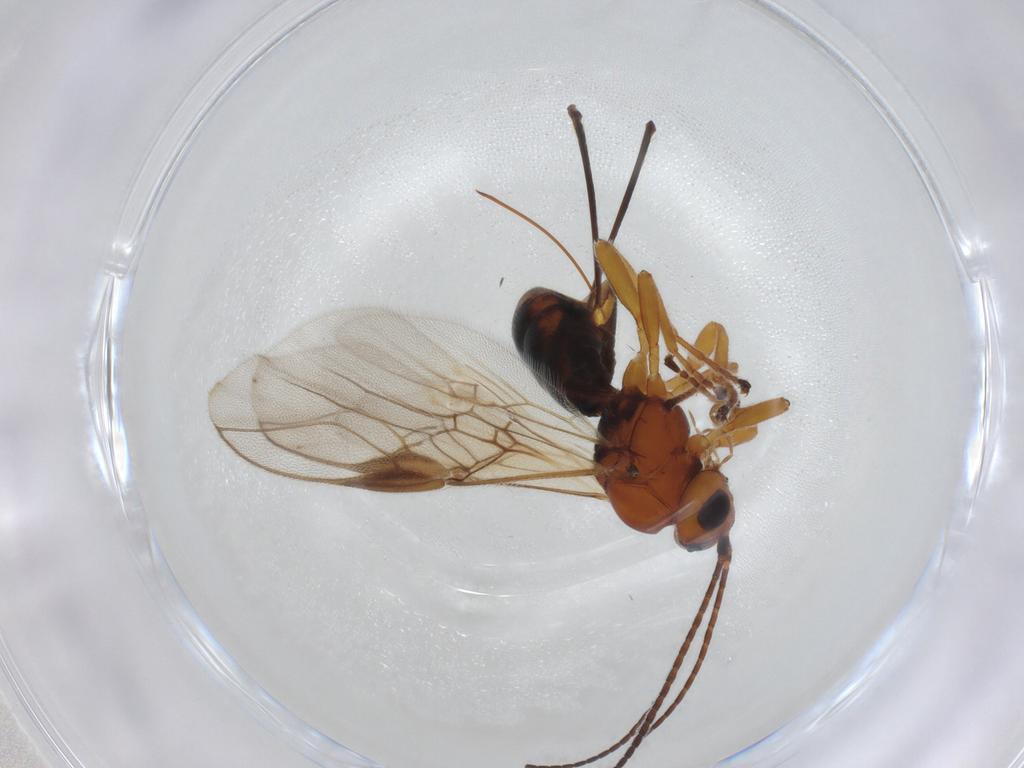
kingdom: Animalia
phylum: Arthropoda
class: Insecta
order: Hymenoptera
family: Braconidae
